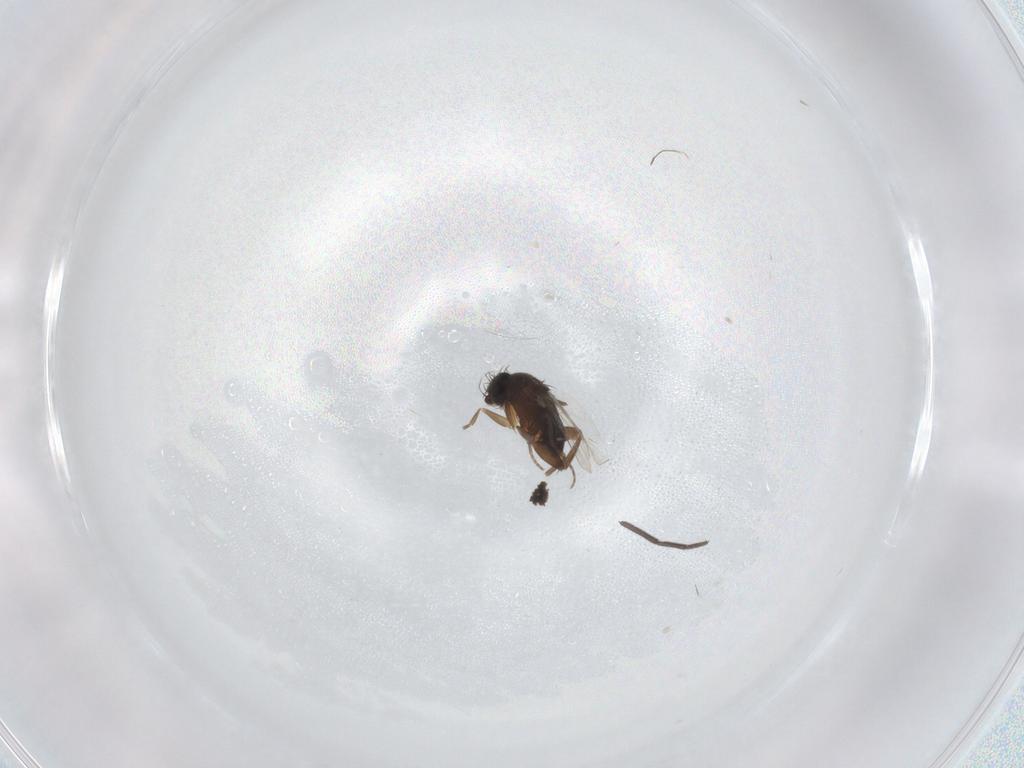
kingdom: Animalia
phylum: Arthropoda
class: Insecta
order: Diptera
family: Phoridae
